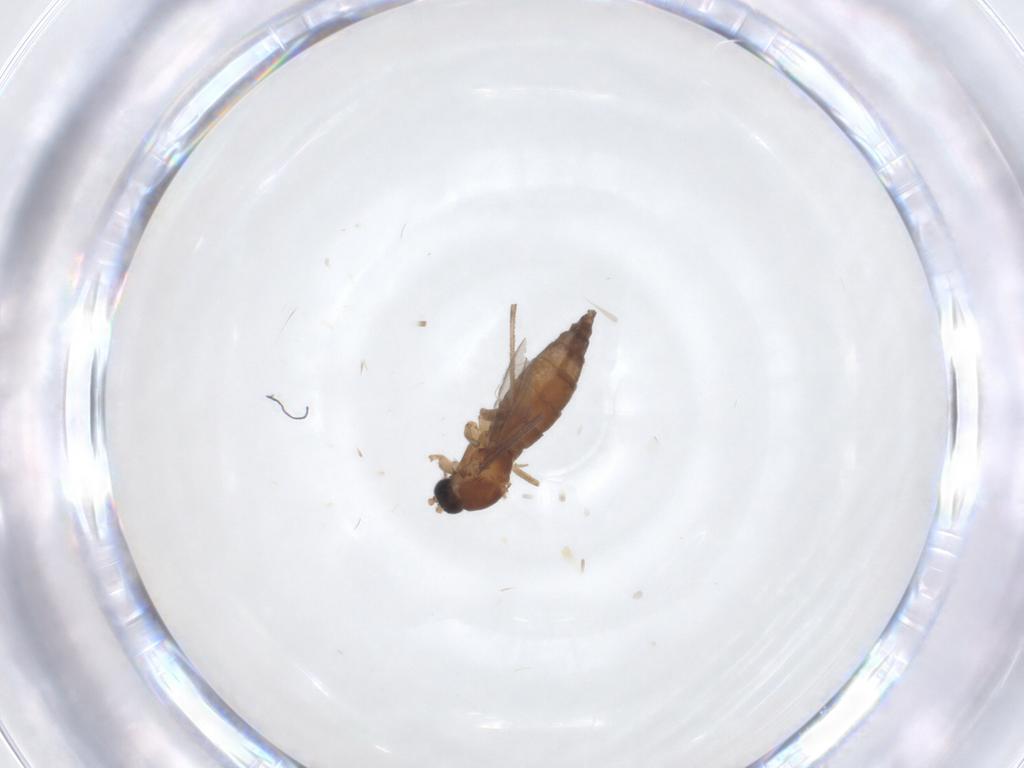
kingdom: Animalia
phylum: Arthropoda
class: Insecta
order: Diptera
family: Sciaridae
